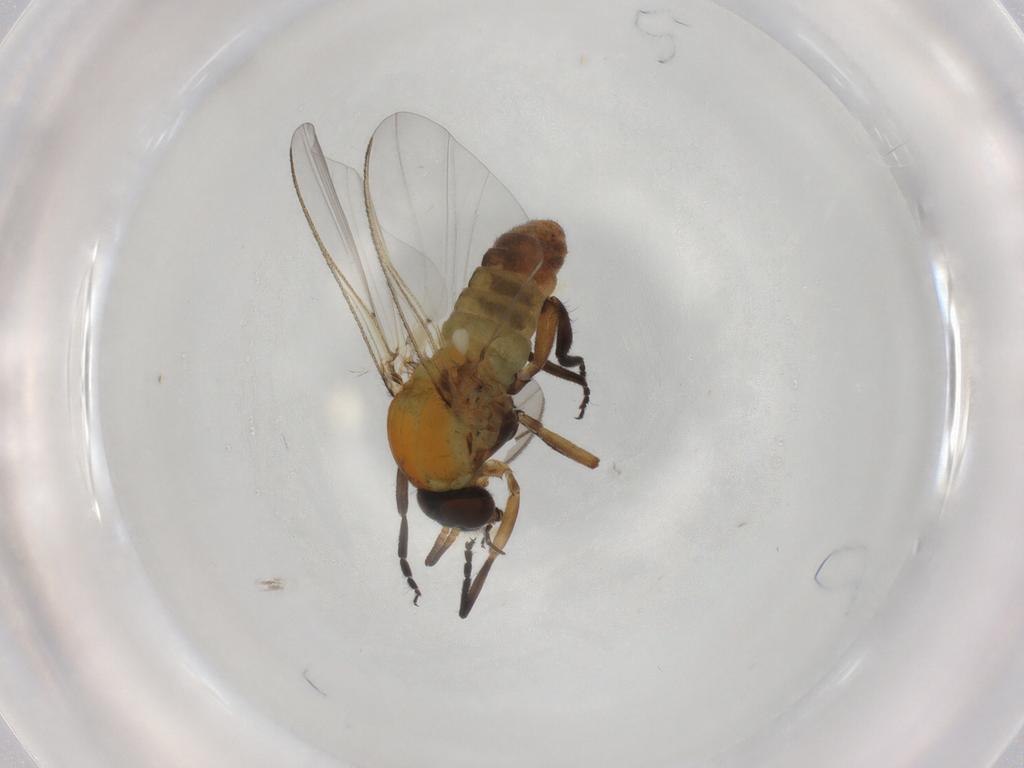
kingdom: Animalia
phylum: Arthropoda
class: Insecta
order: Diptera
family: Simuliidae
